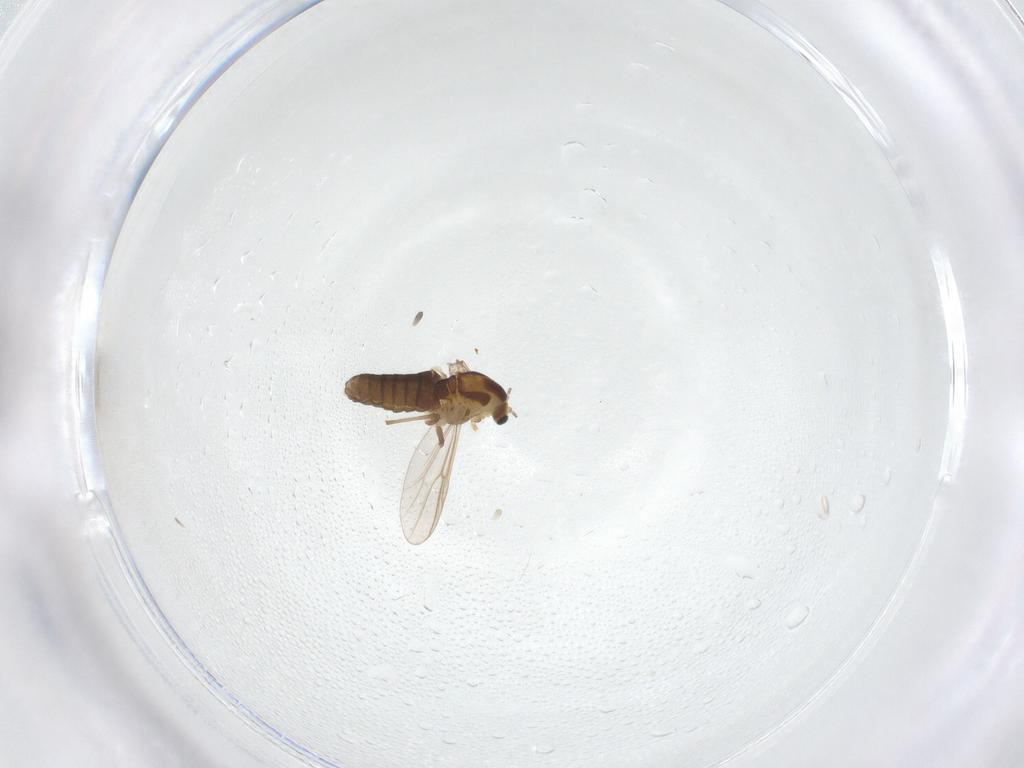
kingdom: Animalia
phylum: Arthropoda
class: Insecta
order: Diptera
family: Chironomidae
